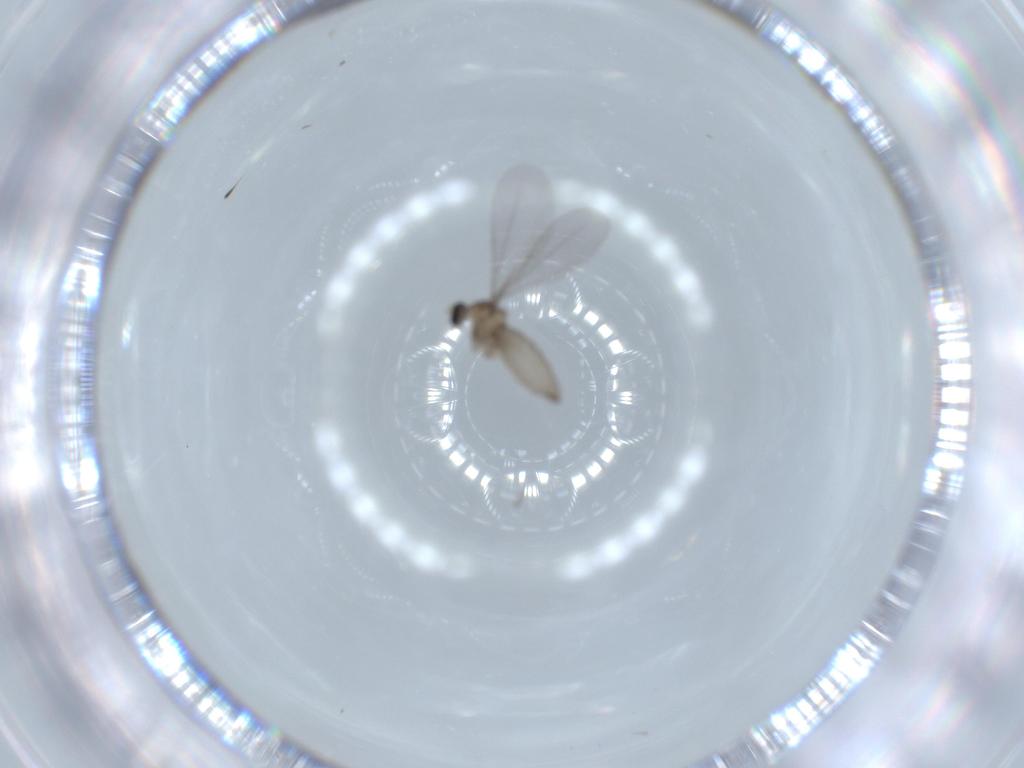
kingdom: Animalia
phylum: Arthropoda
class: Insecta
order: Diptera
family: Cecidomyiidae
